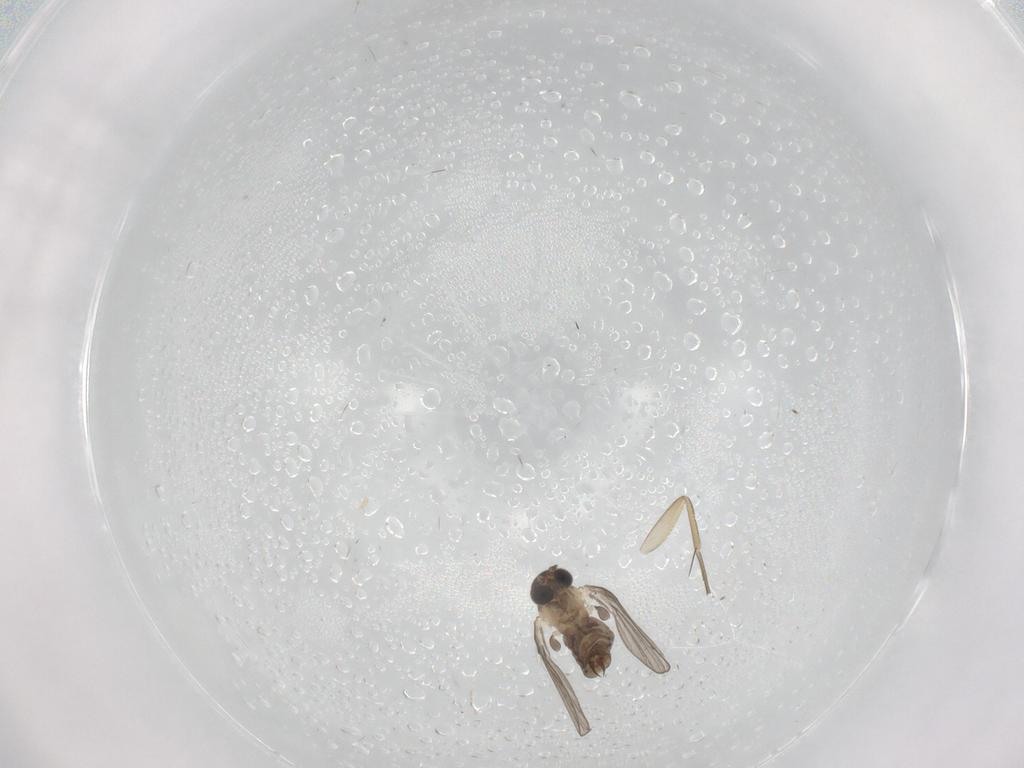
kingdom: Animalia
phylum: Arthropoda
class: Insecta
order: Diptera
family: Psychodidae
